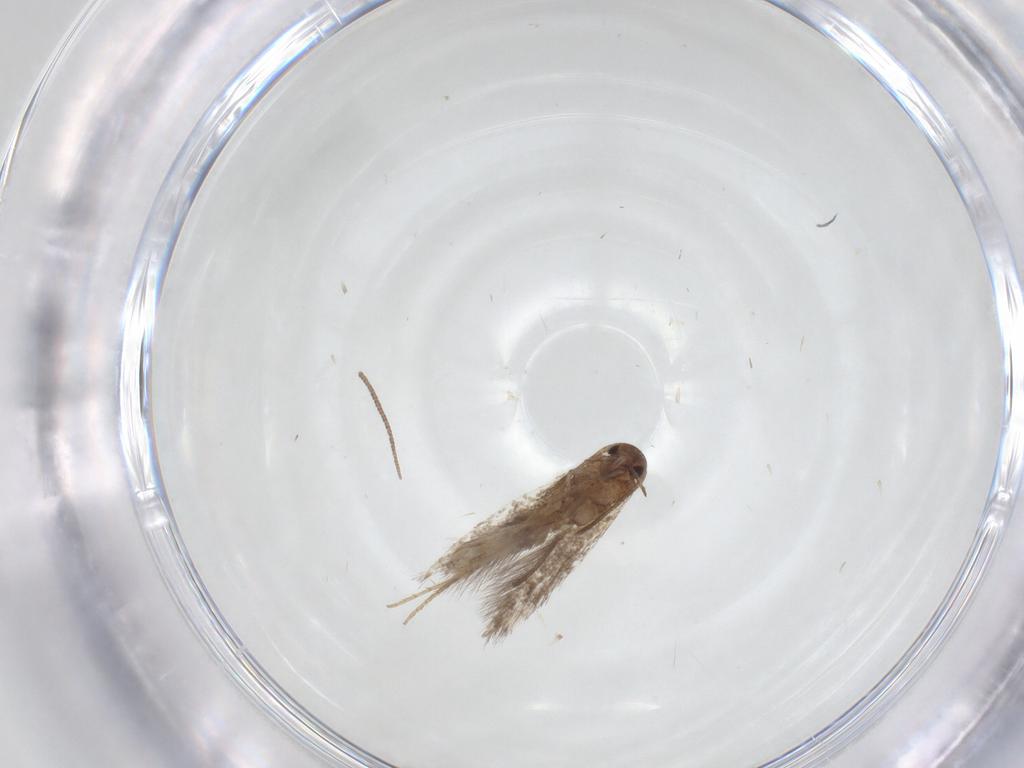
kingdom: Animalia
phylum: Arthropoda
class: Insecta
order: Lepidoptera
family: Gelechiidae
